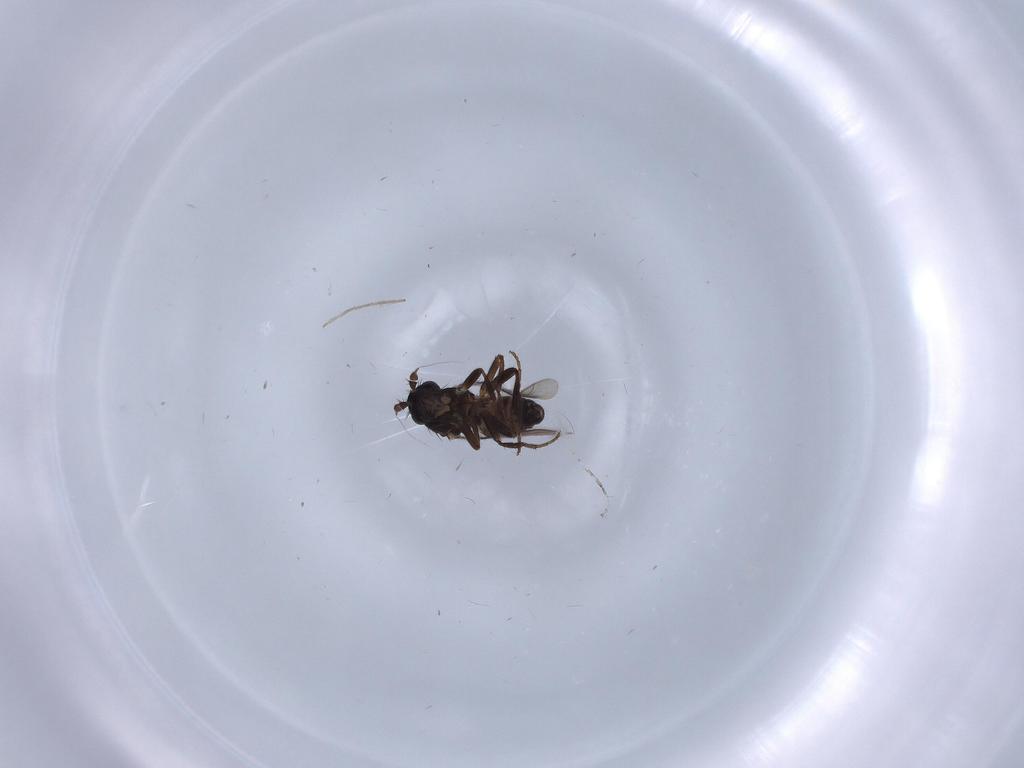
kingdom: Animalia
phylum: Arthropoda
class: Insecta
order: Diptera
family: Chironomidae
